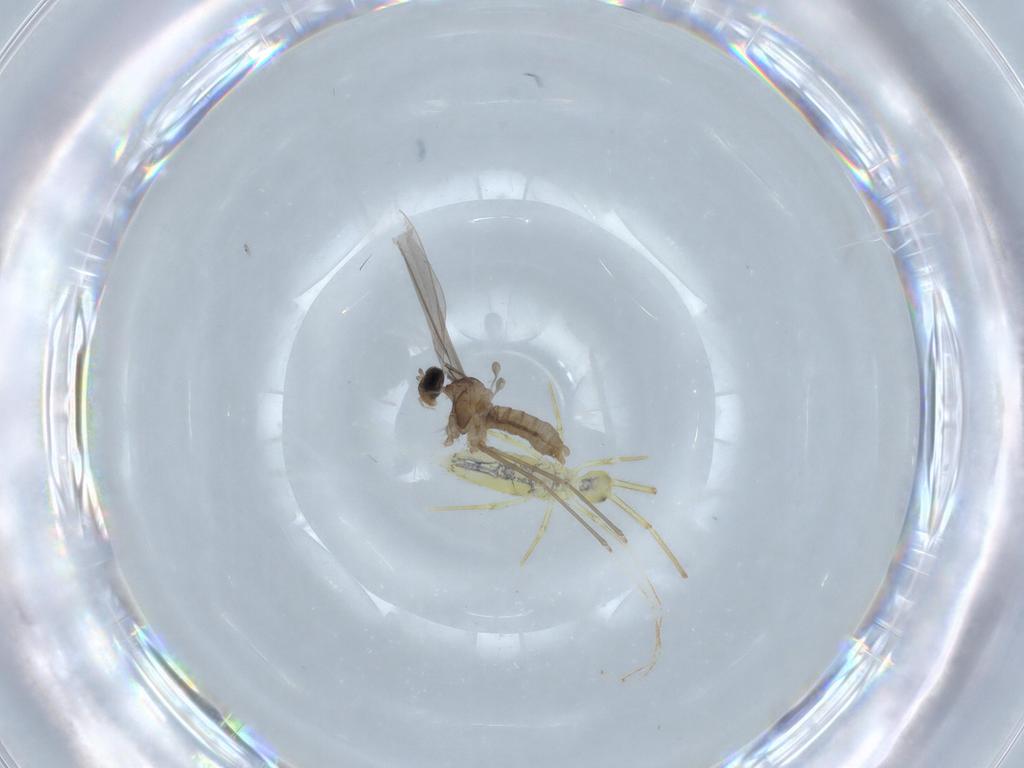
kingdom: Animalia
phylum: Arthropoda
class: Insecta
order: Diptera
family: Cecidomyiidae
